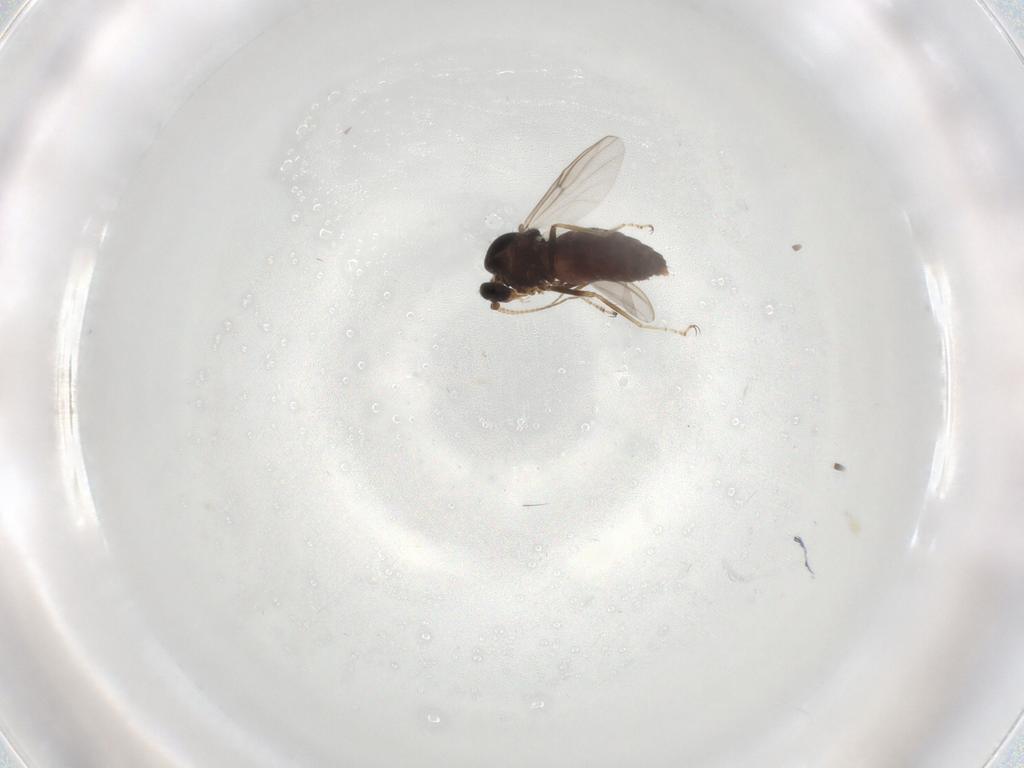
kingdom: Animalia
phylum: Arthropoda
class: Insecta
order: Diptera
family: Ceratopogonidae
